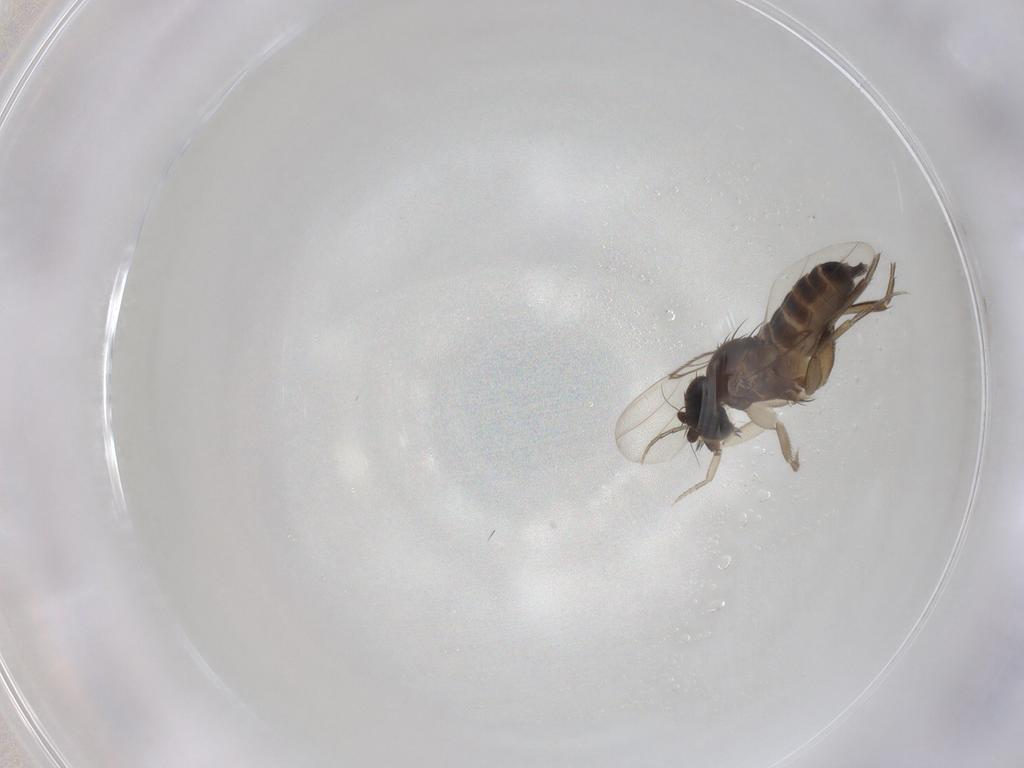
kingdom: Animalia
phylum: Arthropoda
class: Insecta
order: Diptera
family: Phoridae
